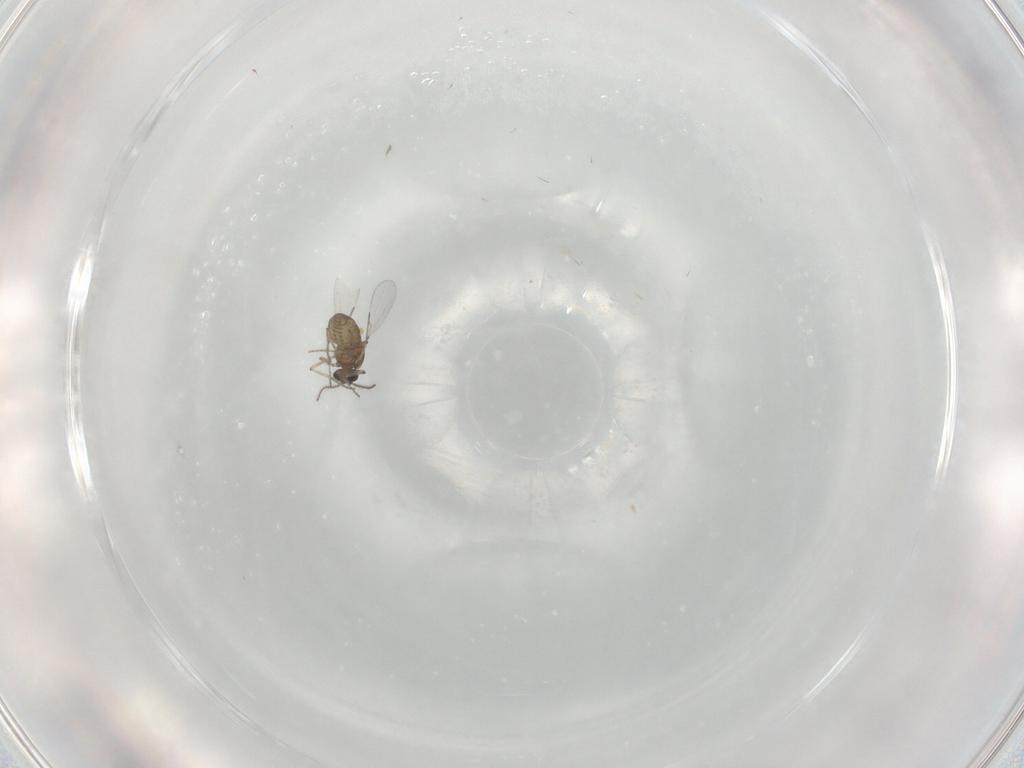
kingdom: Animalia
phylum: Arthropoda
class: Insecta
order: Diptera
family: Ceratopogonidae
